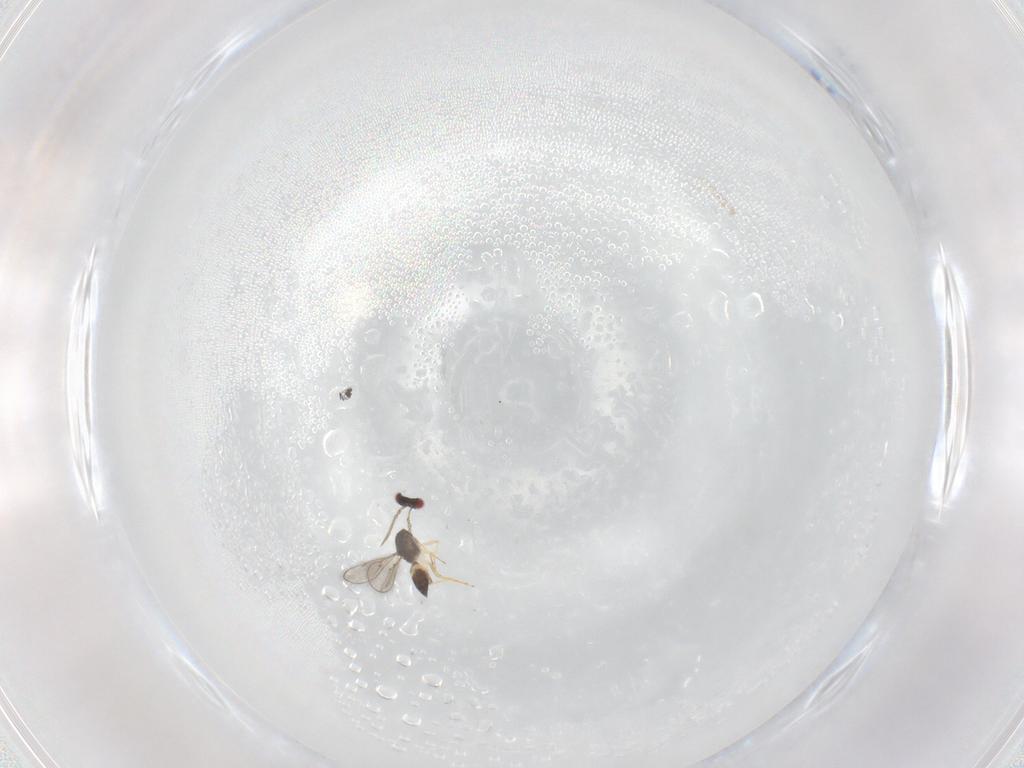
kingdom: Animalia
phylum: Arthropoda
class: Insecta
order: Hymenoptera
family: Eulophidae
